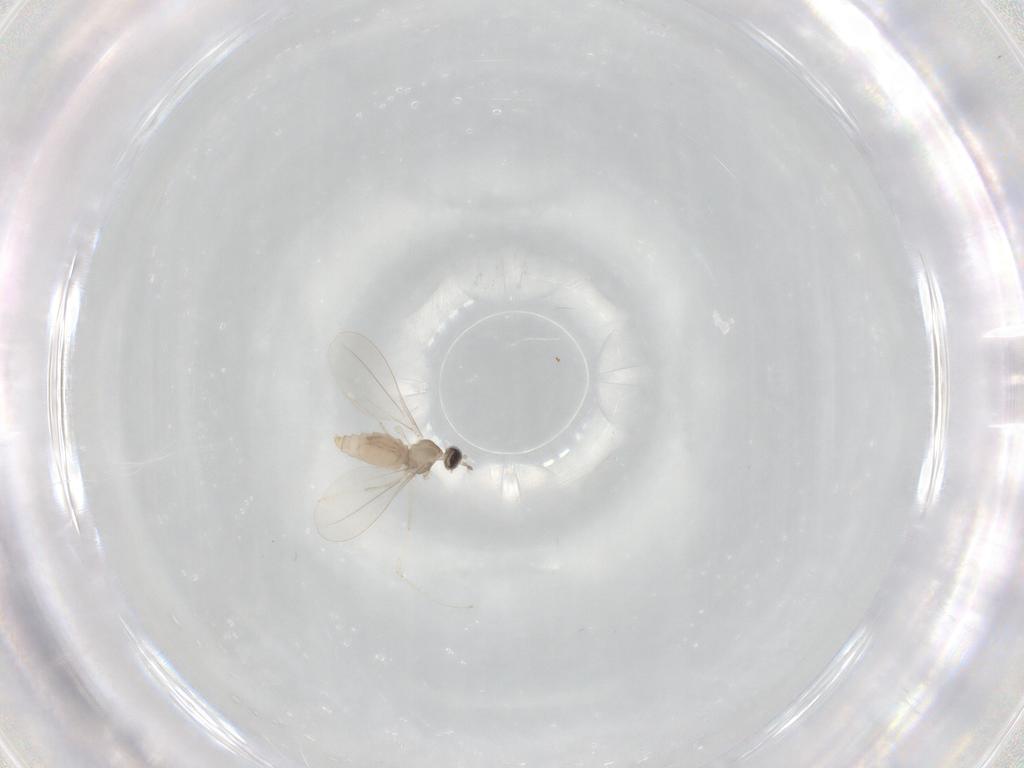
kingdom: Animalia
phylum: Arthropoda
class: Insecta
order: Diptera
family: Cecidomyiidae
